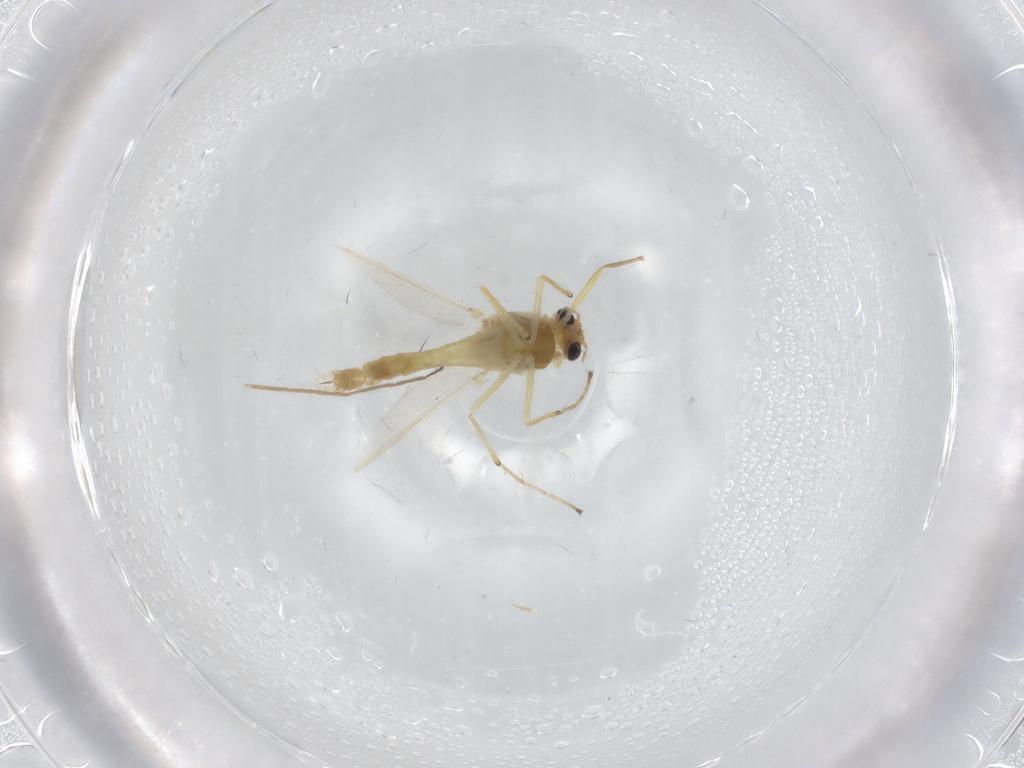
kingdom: Animalia
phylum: Arthropoda
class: Insecta
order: Diptera
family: Chironomidae
